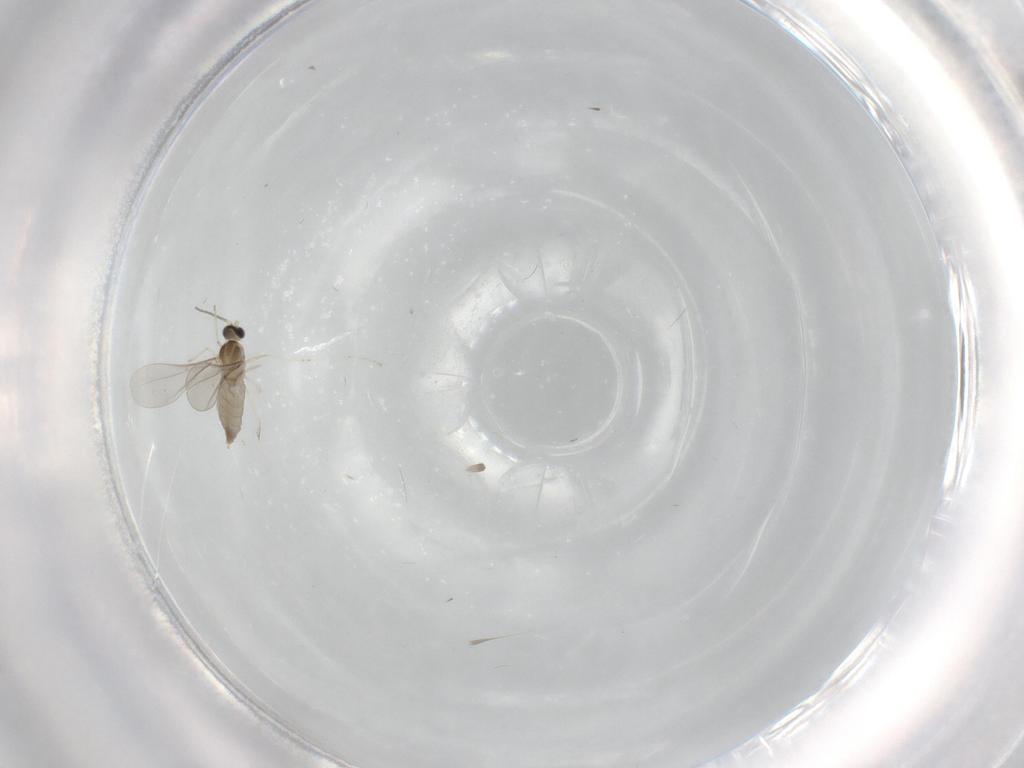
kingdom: Animalia
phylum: Arthropoda
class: Insecta
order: Diptera
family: Cecidomyiidae
